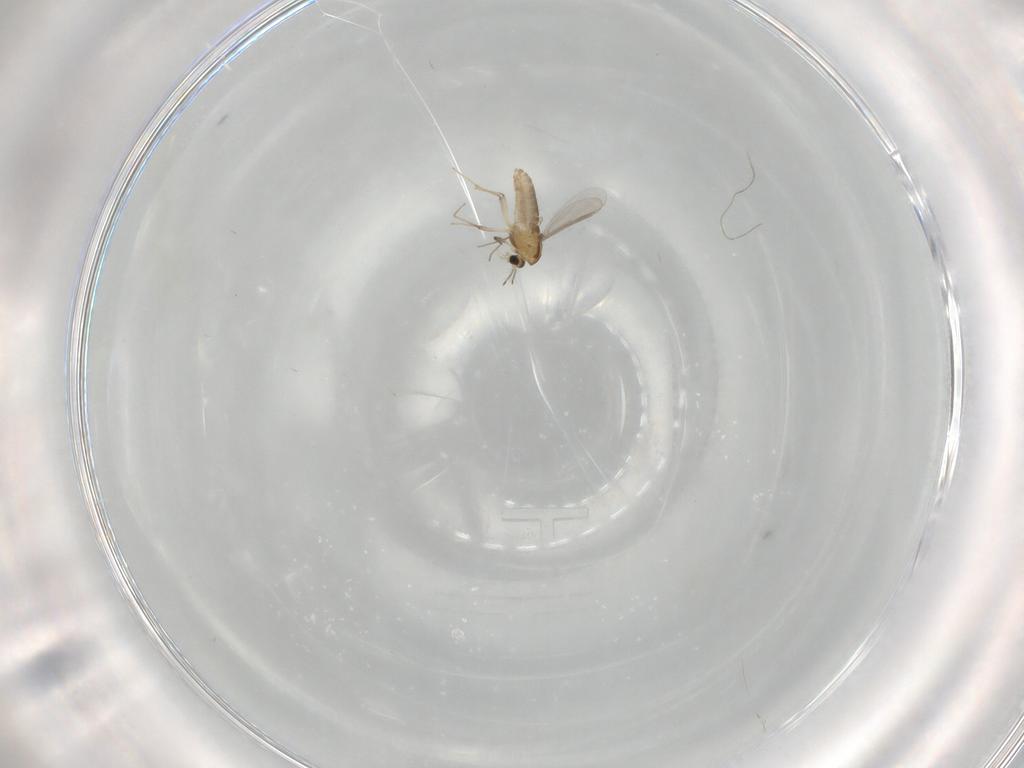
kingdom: Animalia
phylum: Arthropoda
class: Insecta
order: Diptera
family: Chironomidae
